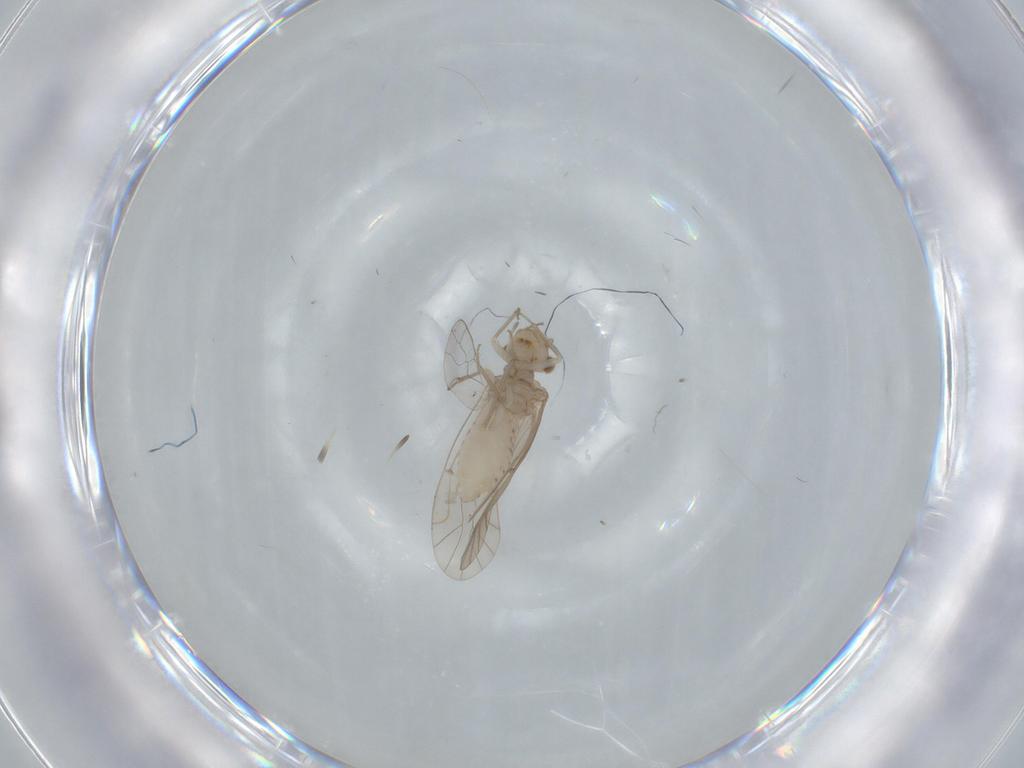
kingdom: Animalia
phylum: Arthropoda
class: Insecta
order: Psocodea
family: Lachesillidae
